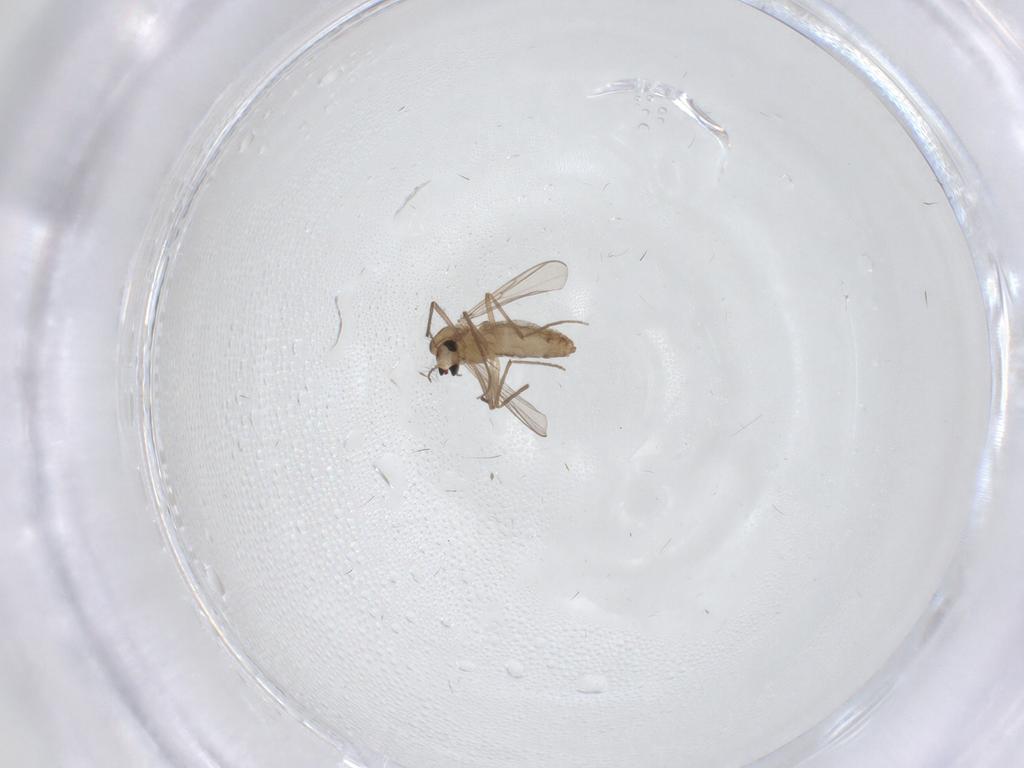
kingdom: Animalia
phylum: Arthropoda
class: Insecta
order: Diptera
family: Chironomidae
